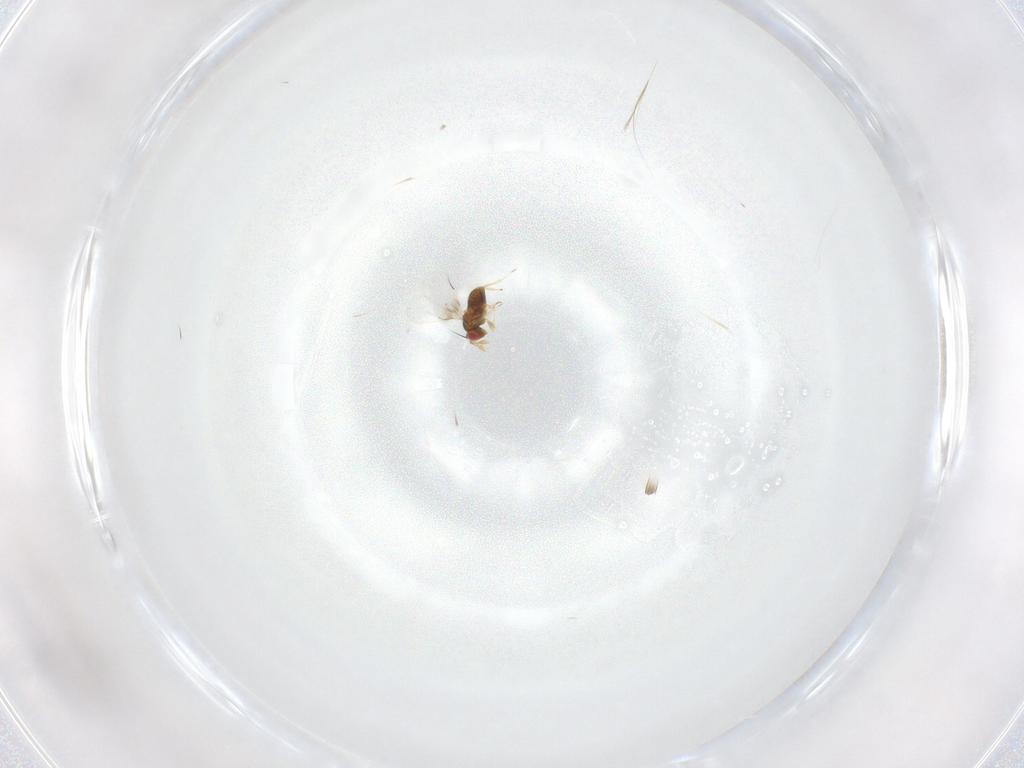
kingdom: Animalia
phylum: Arthropoda
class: Insecta
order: Hymenoptera
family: Trichogrammatidae
